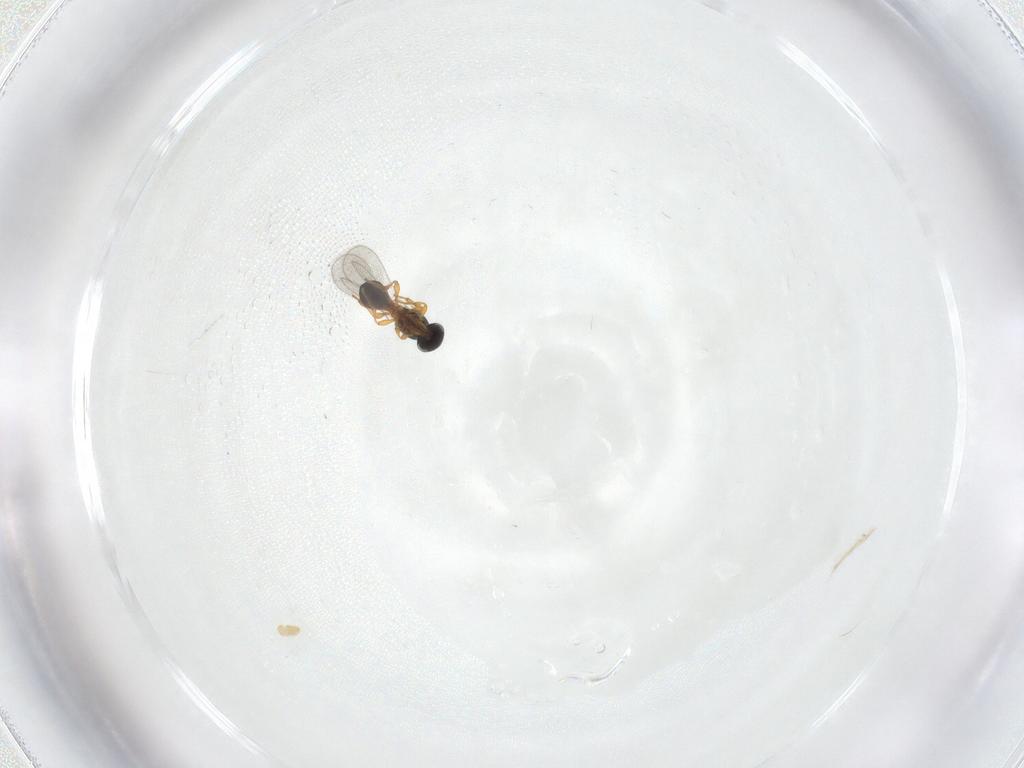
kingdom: Animalia
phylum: Arthropoda
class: Insecta
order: Hymenoptera
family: Platygastridae
